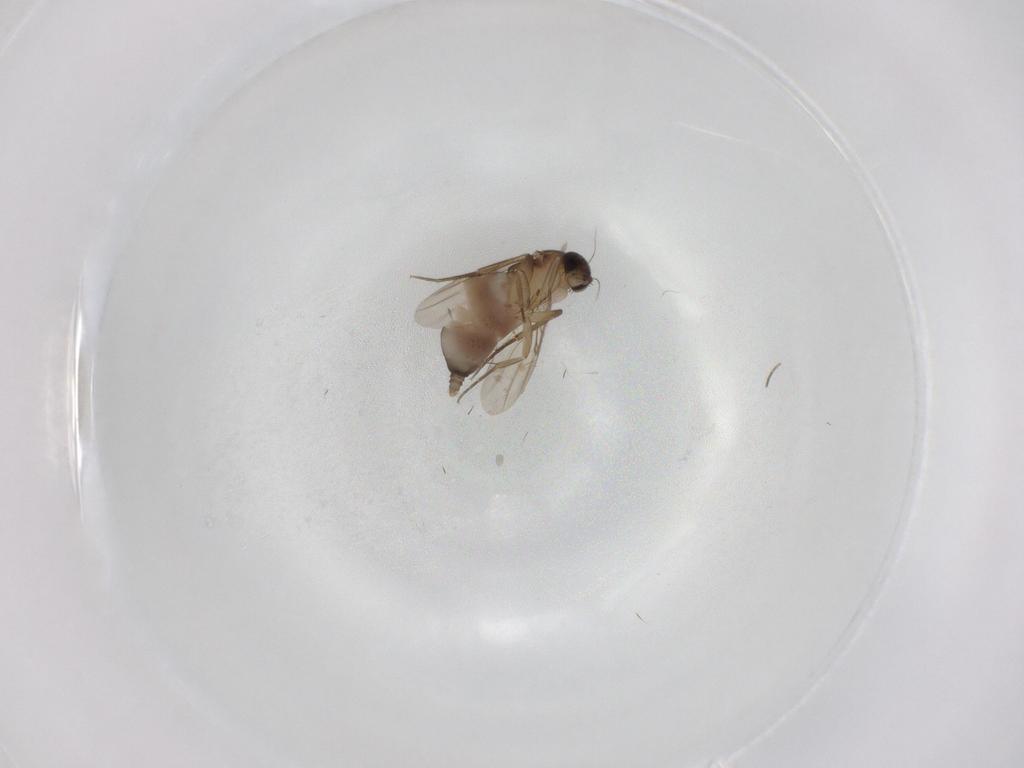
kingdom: Animalia
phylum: Arthropoda
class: Insecta
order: Diptera
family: Phoridae
